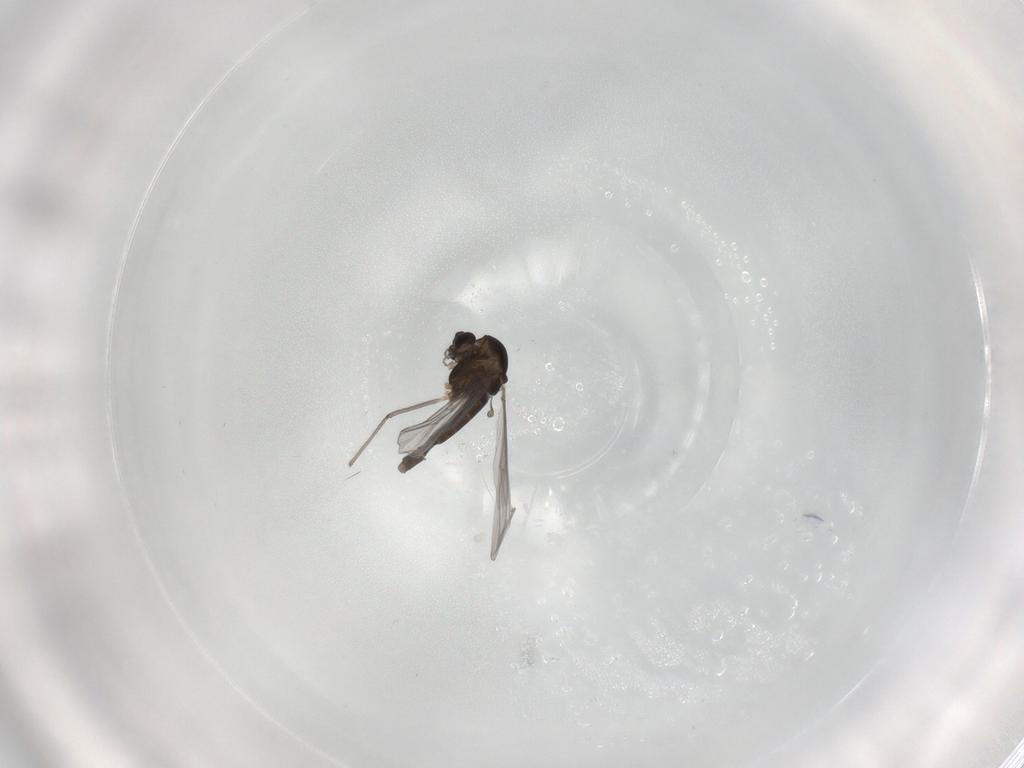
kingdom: Animalia
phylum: Arthropoda
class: Insecta
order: Diptera
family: Chironomidae
